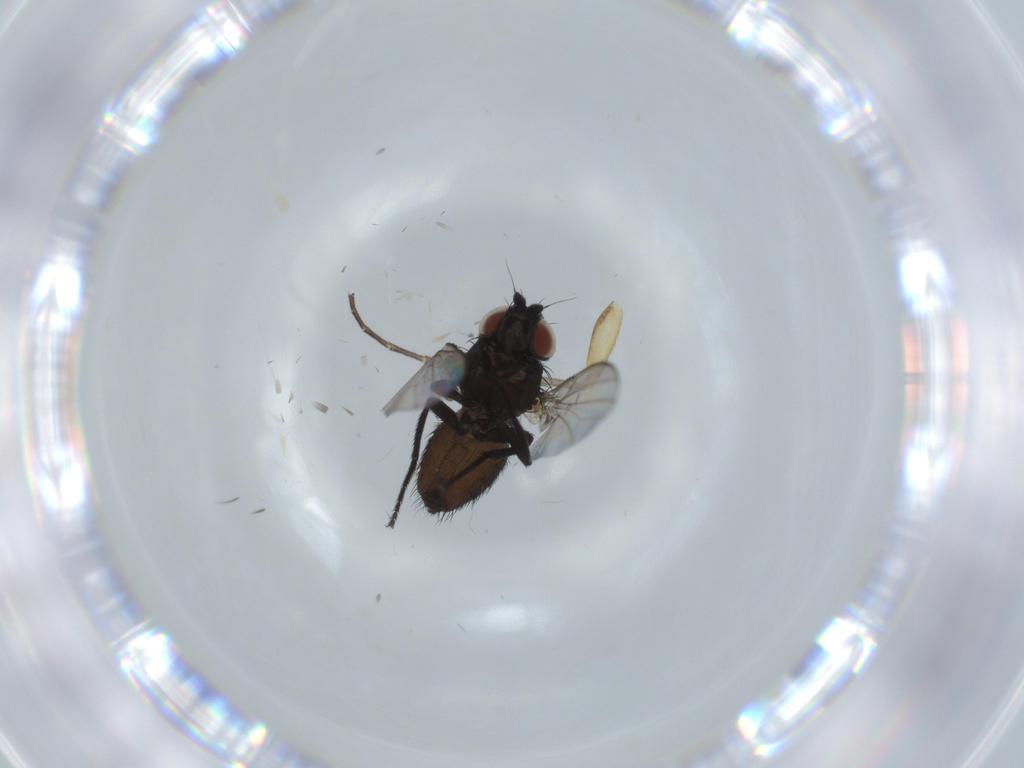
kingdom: Animalia
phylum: Arthropoda
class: Insecta
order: Diptera
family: Milichiidae
